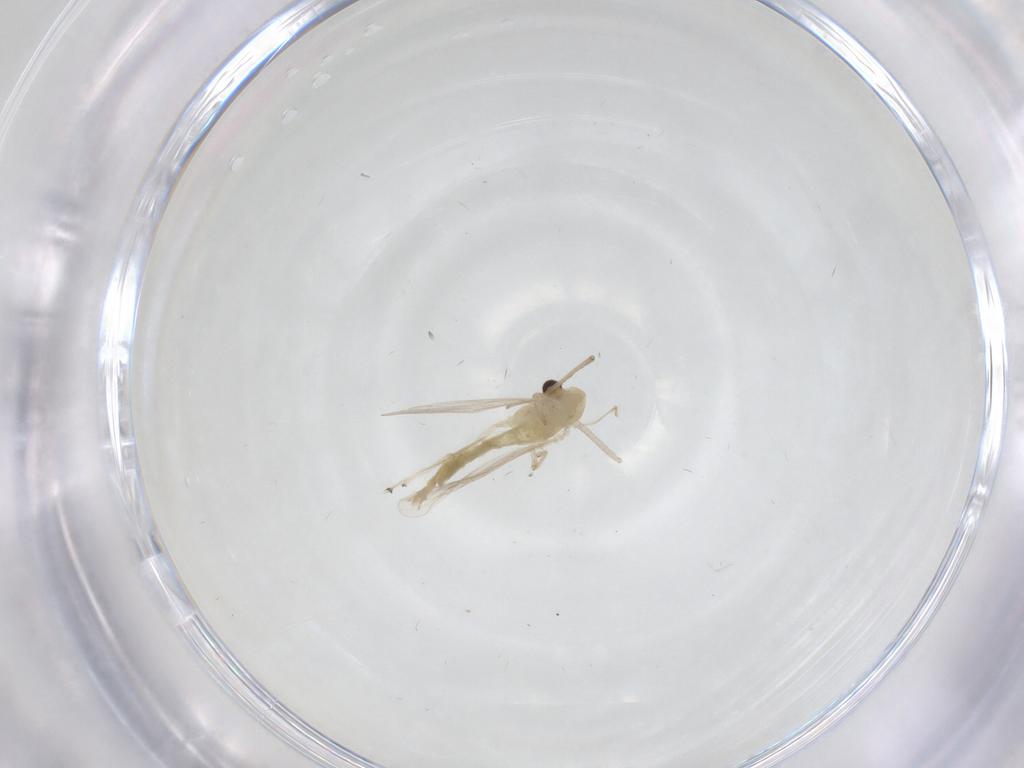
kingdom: Animalia
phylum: Arthropoda
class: Insecta
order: Diptera
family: Chironomidae
